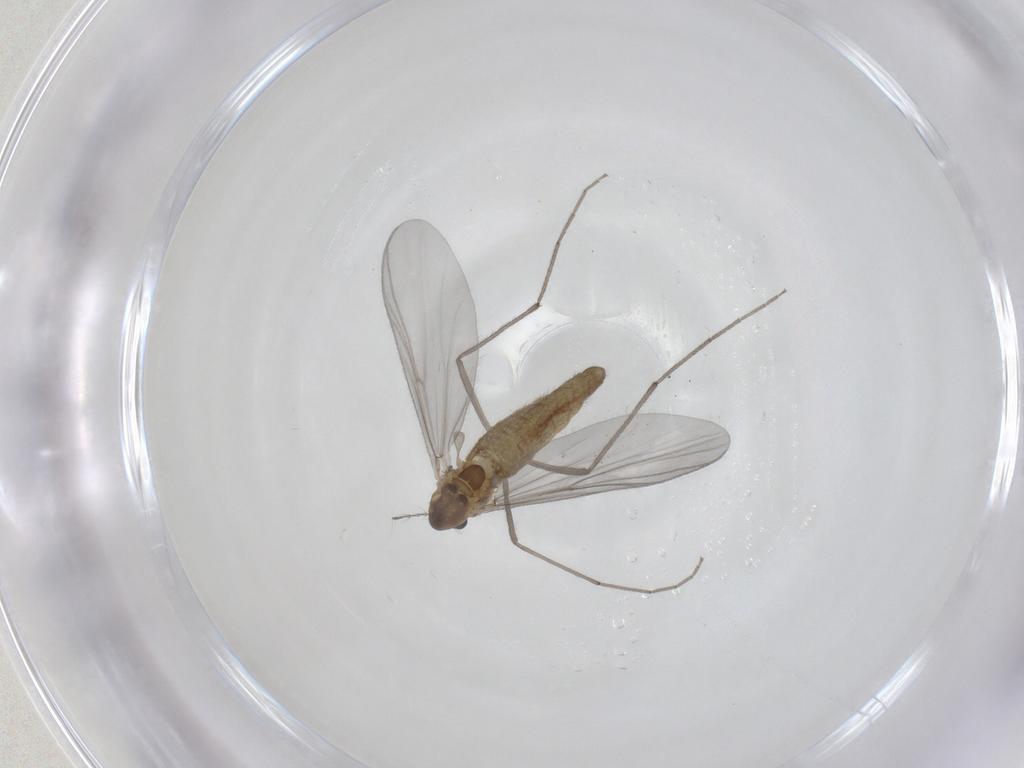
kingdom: Animalia
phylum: Arthropoda
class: Insecta
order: Diptera
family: Chironomidae
